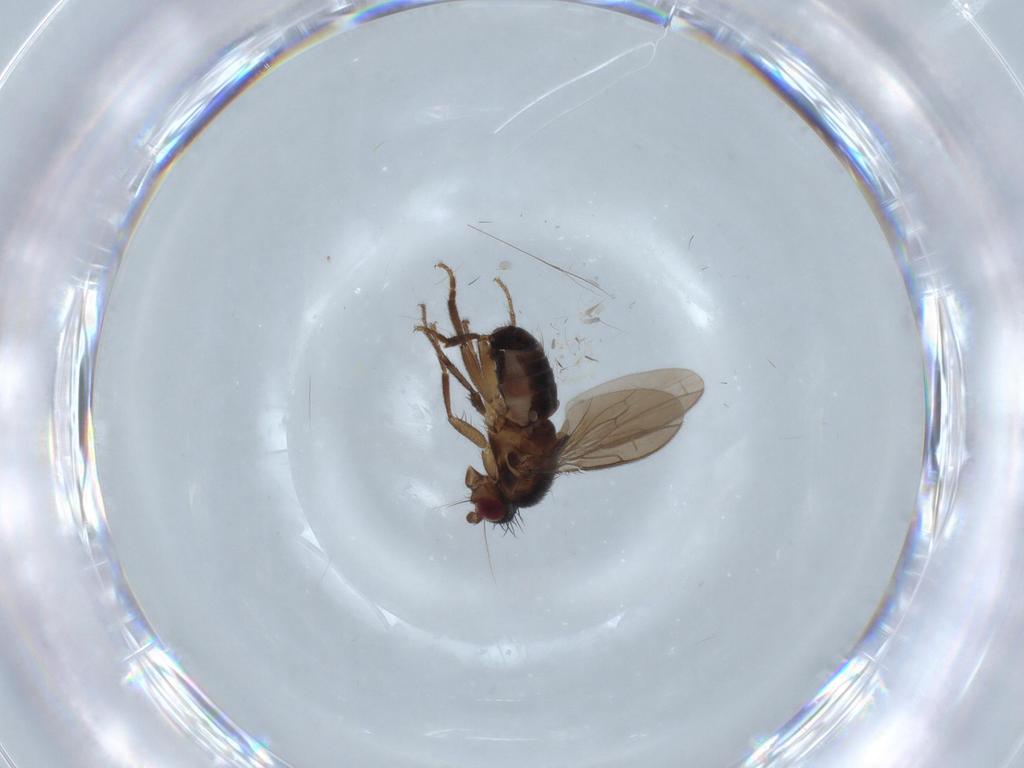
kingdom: Animalia
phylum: Arthropoda
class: Insecta
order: Diptera
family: Sphaeroceridae
